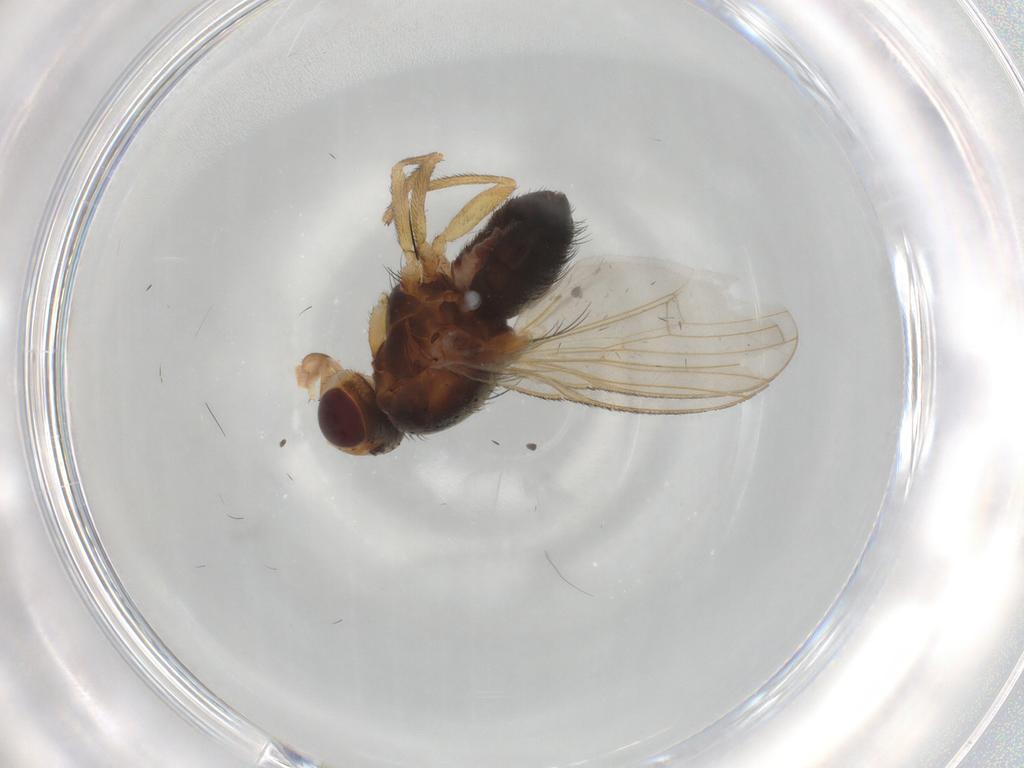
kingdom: Animalia
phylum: Arthropoda
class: Insecta
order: Diptera
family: Heleomyzidae
